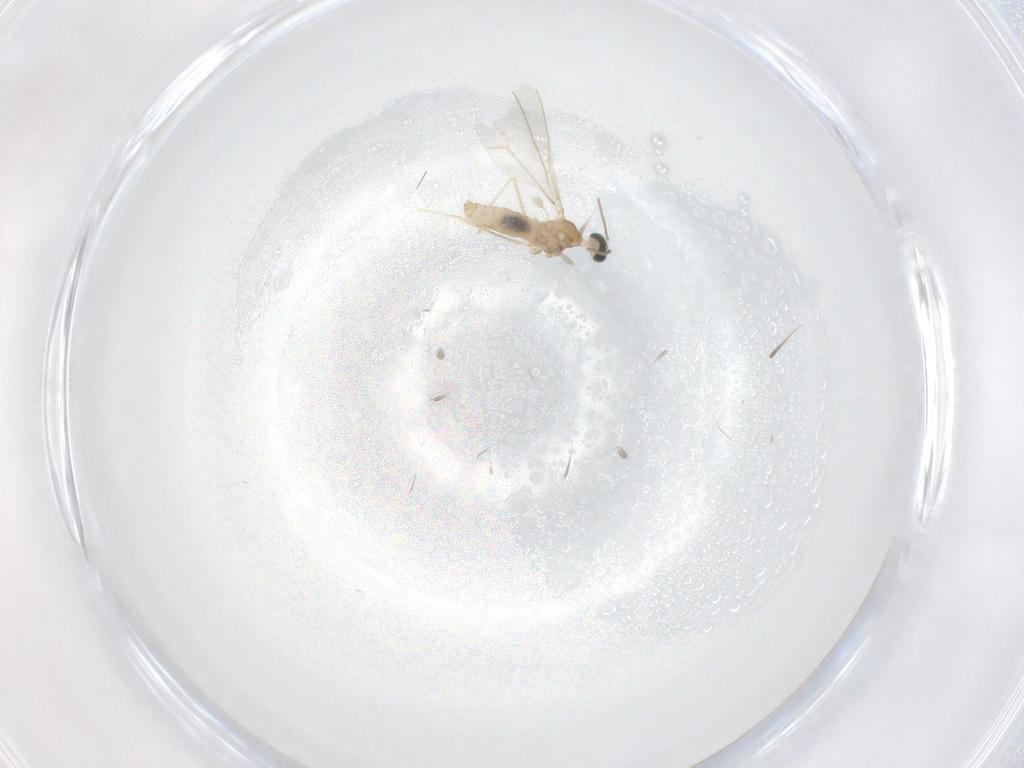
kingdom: Animalia
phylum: Arthropoda
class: Insecta
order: Diptera
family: Cecidomyiidae
